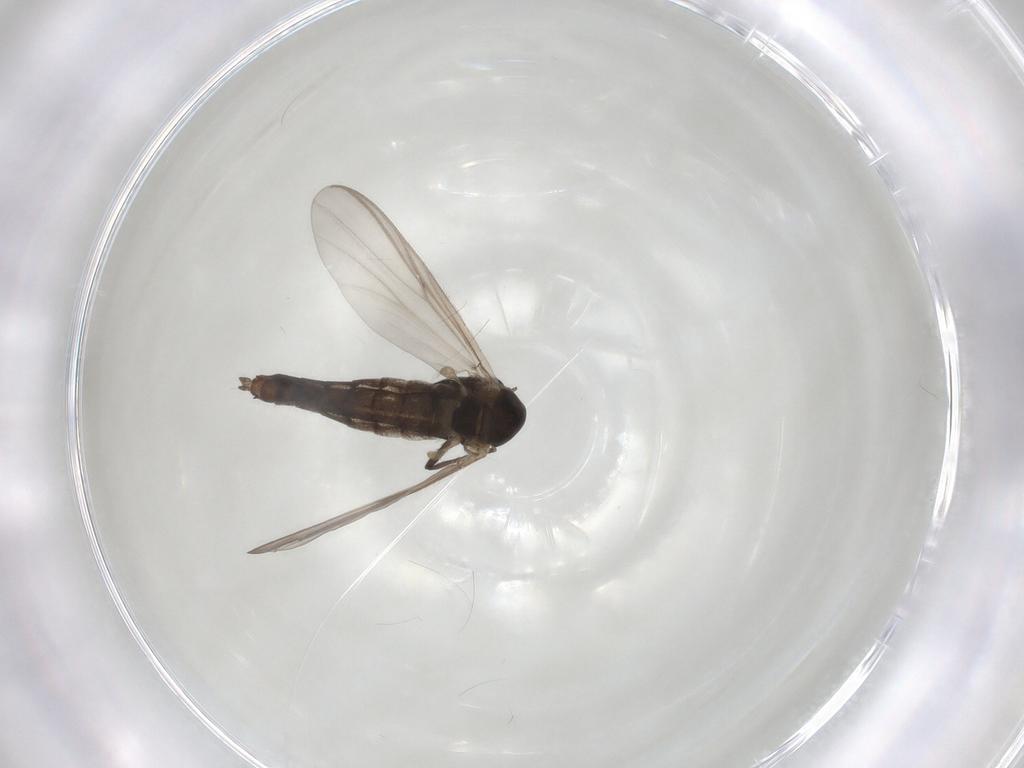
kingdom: Animalia
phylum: Arthropoda
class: Insecta
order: Diptera
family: Chironomidae
